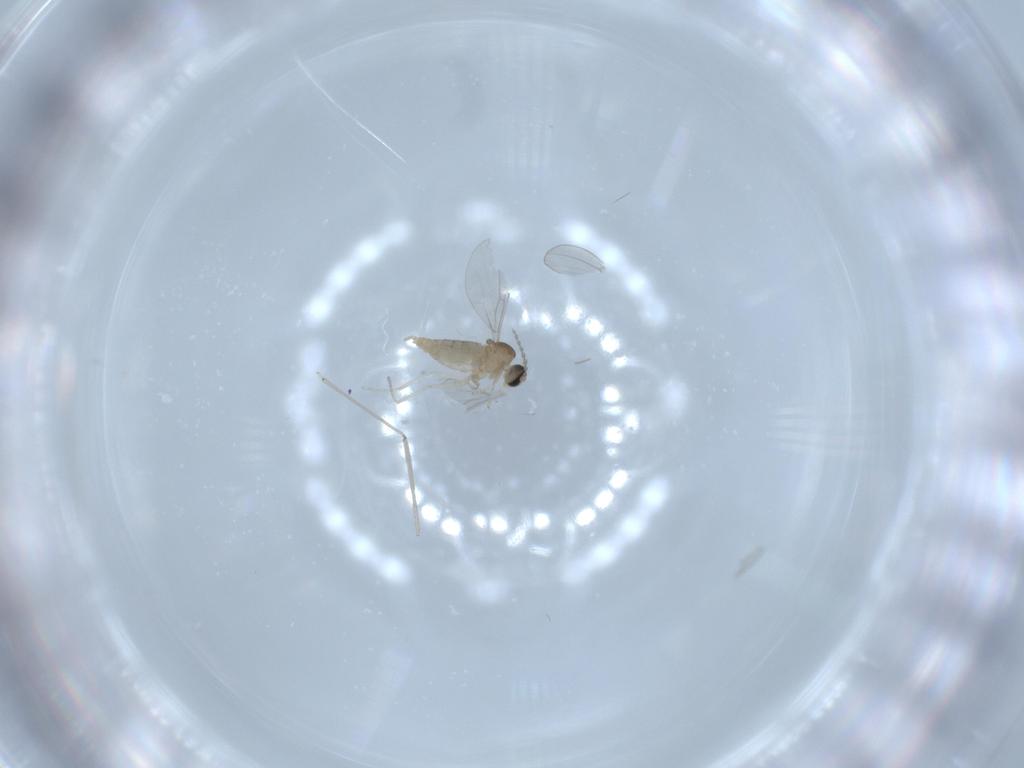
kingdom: Animalia
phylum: Arthropoda
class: Insecta
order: Diptera
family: Cecidomyiidae
